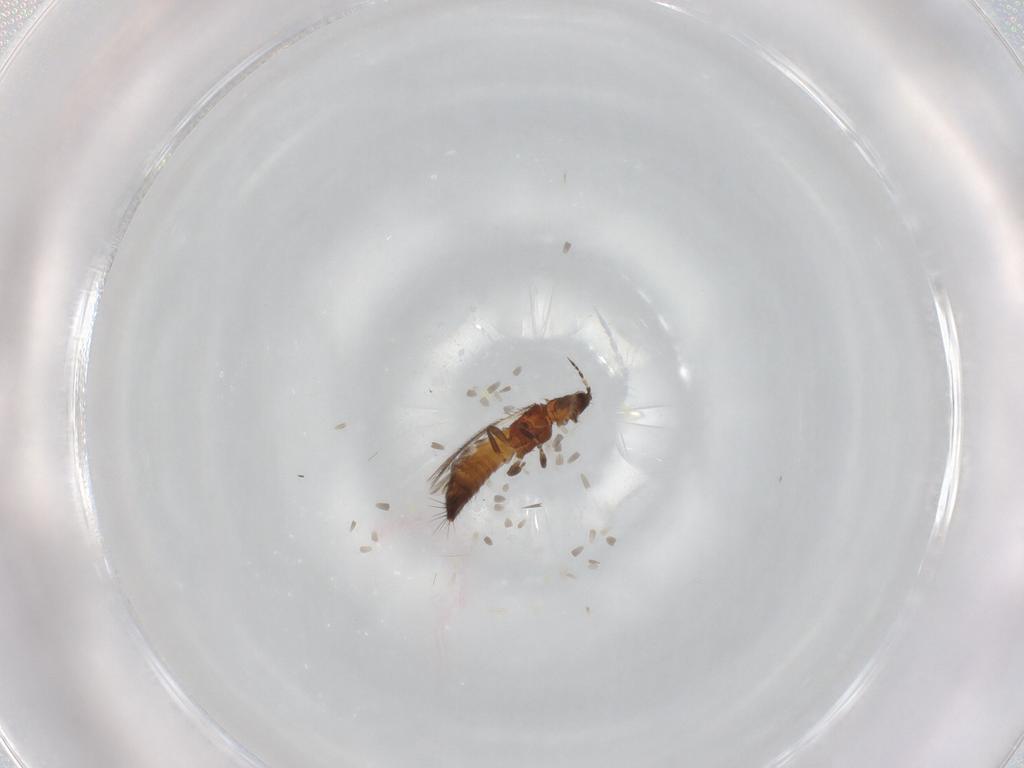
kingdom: Animalia
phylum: Arthropoda
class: Insecta
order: Thysanoptera
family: Thripidae
